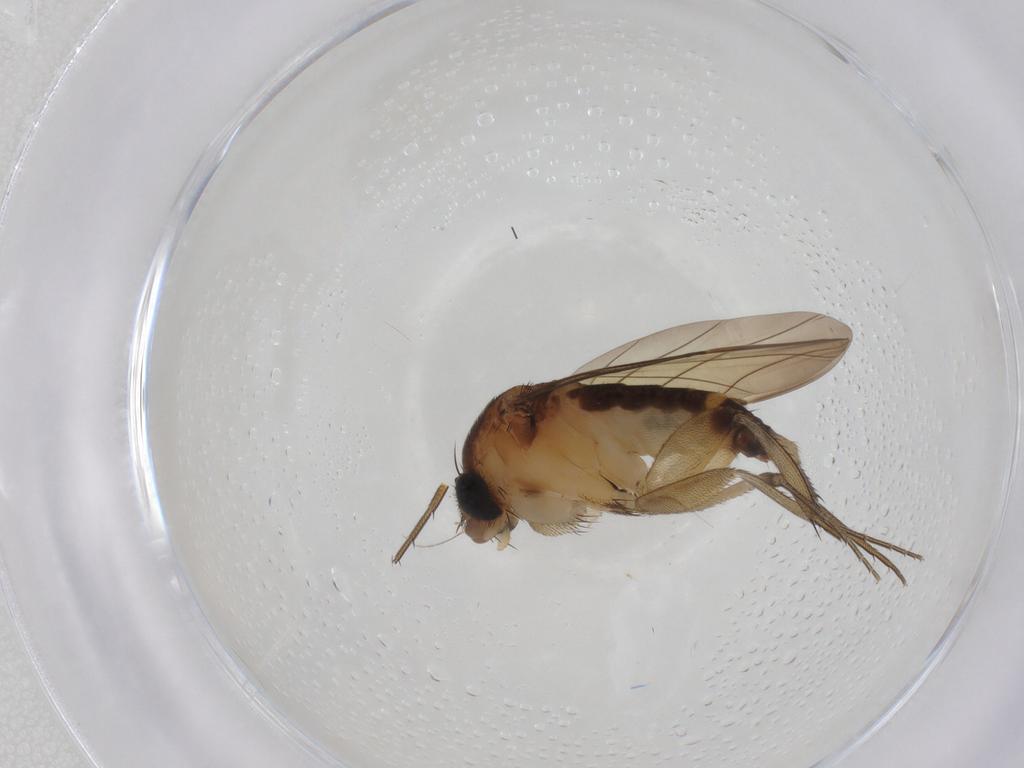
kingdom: Animalia
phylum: Arthropoda
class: Insecta
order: Diptera
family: Phoridae
